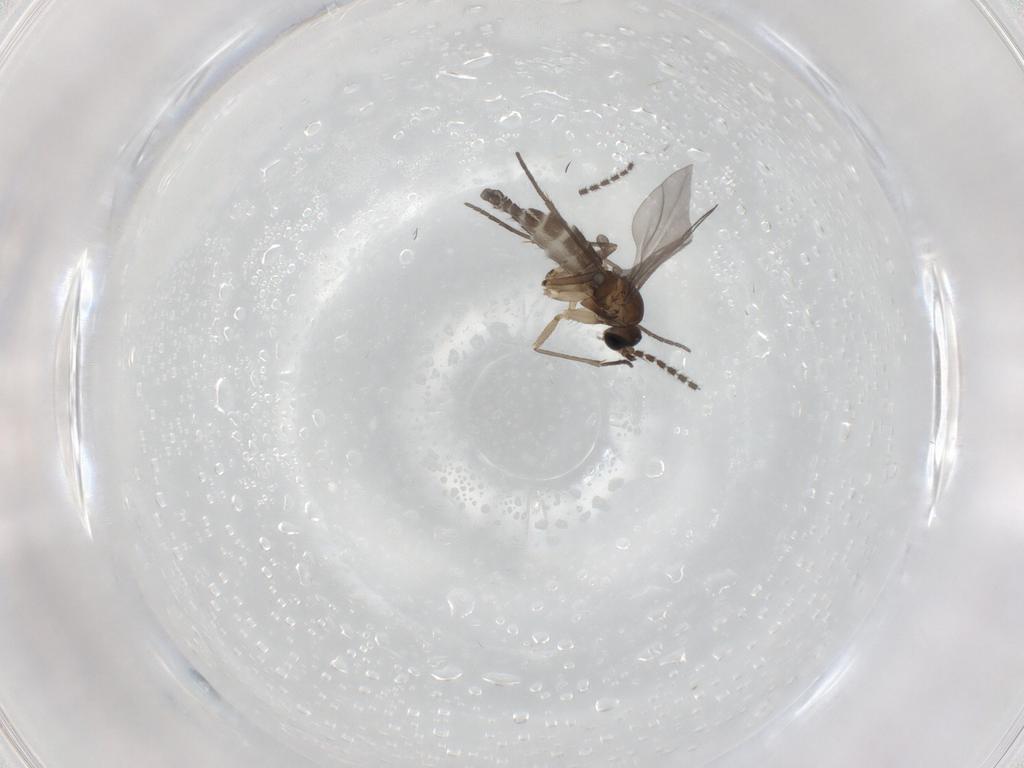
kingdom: Animalia
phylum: Arthropoda
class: Insecta
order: Diptera
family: Sciaridae
